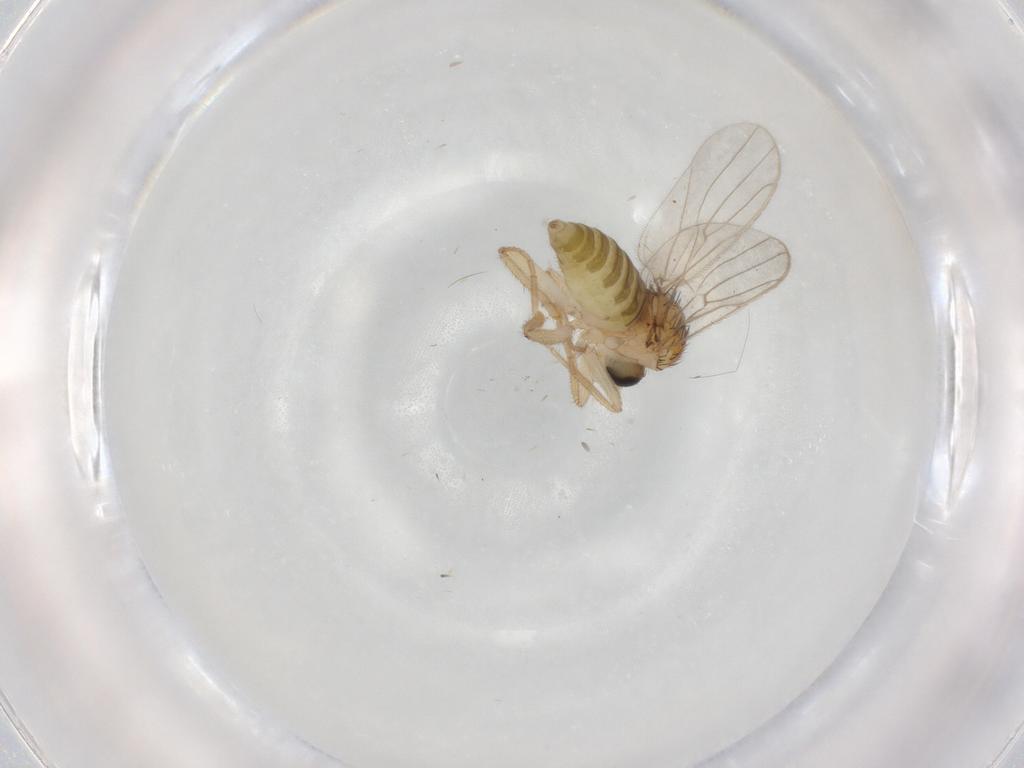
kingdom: Animalia
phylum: Arthropoda
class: Insecta
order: Diptera
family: Hybotidae
